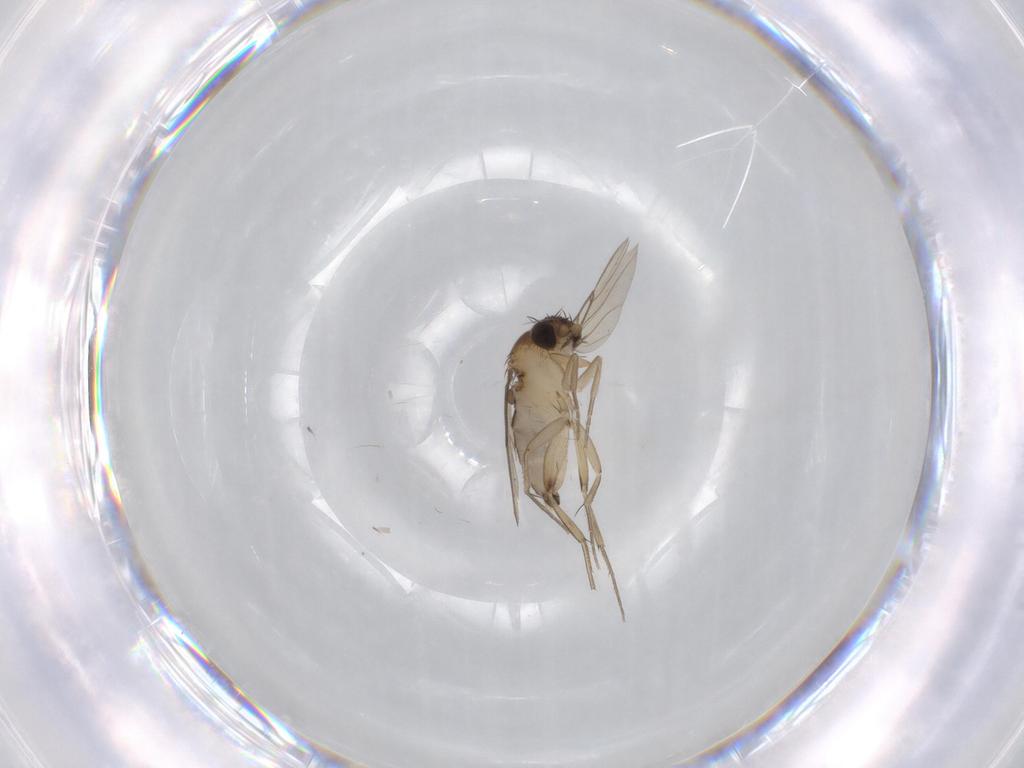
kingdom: Animalia
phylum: Arthropoda
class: Insecta
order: Diptera
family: Phoridae
